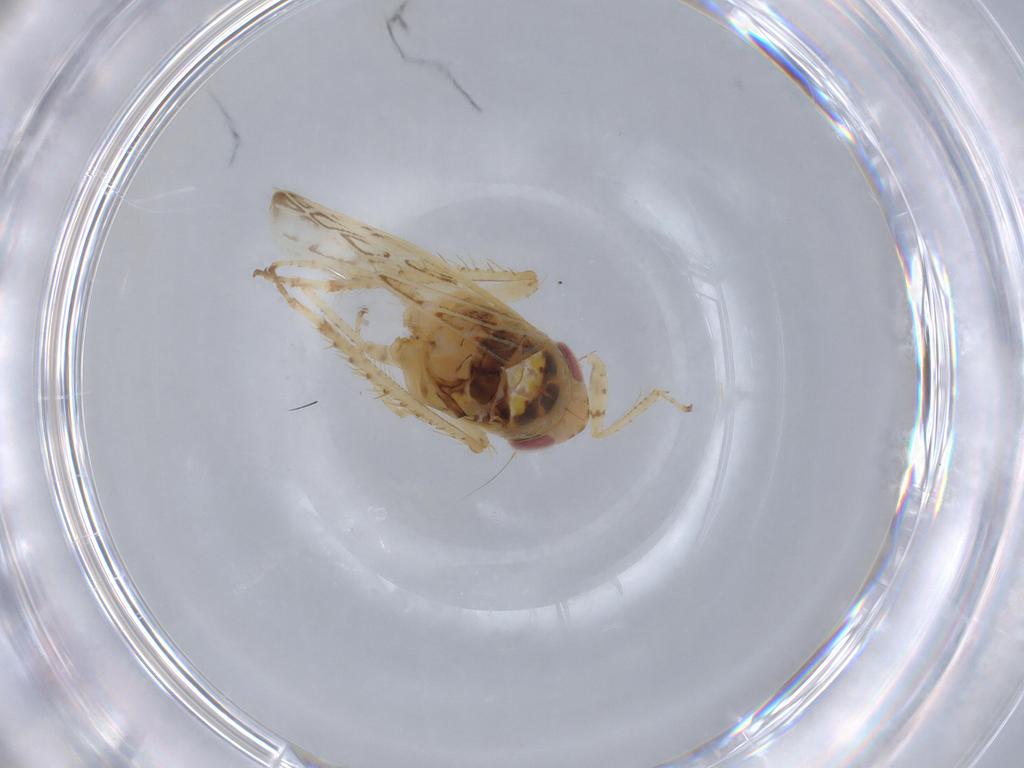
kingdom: Animalia
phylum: Arthropoda
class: Insecta
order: Hemiptera
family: Cicadellidae
